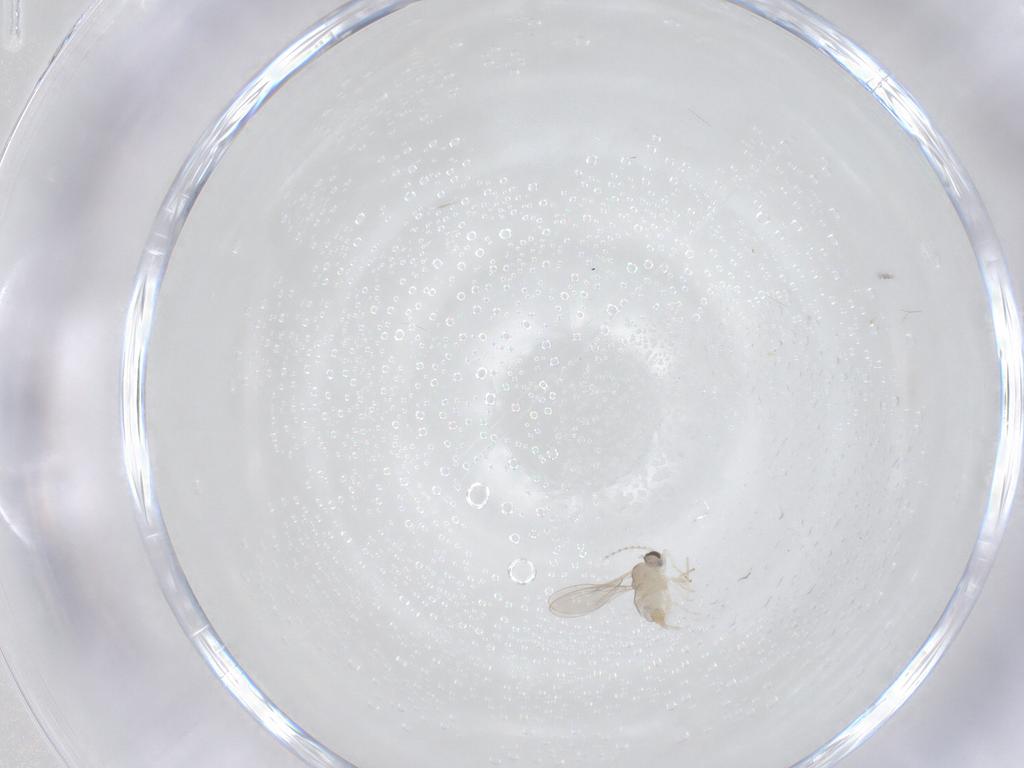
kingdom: Animalia
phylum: Arthropoda
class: Insecta
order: Diptera
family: Cecidomyiidae
